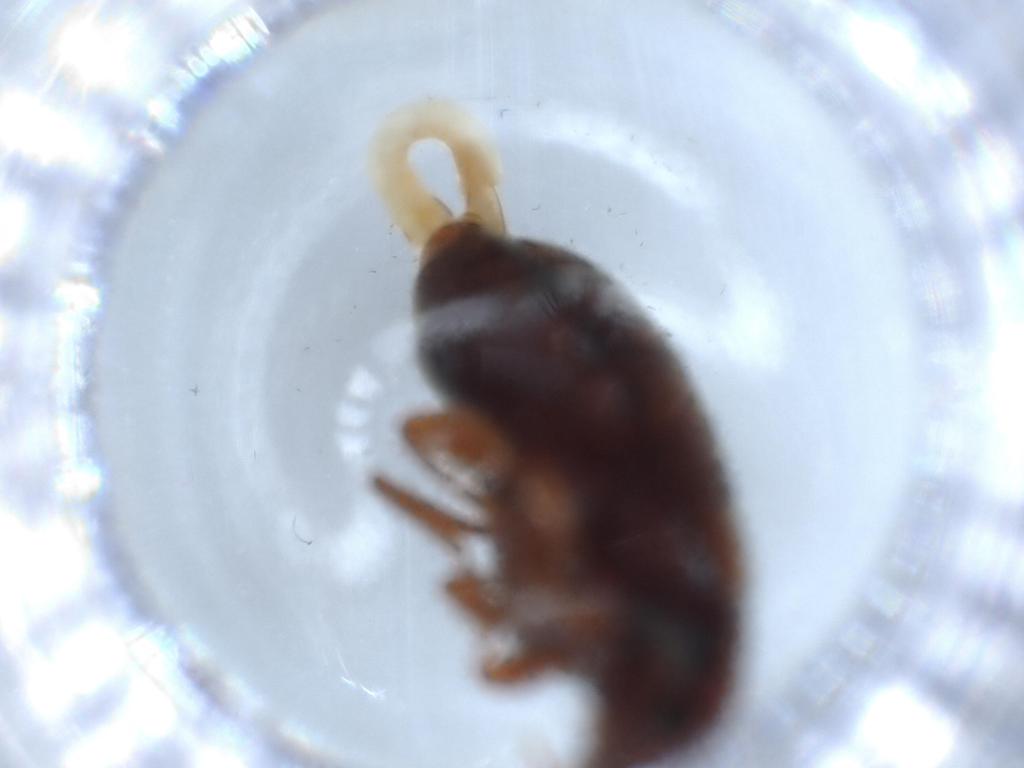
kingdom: Animalia
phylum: Arthropoda
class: Insecta
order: Coleoptera
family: Mycteridae
